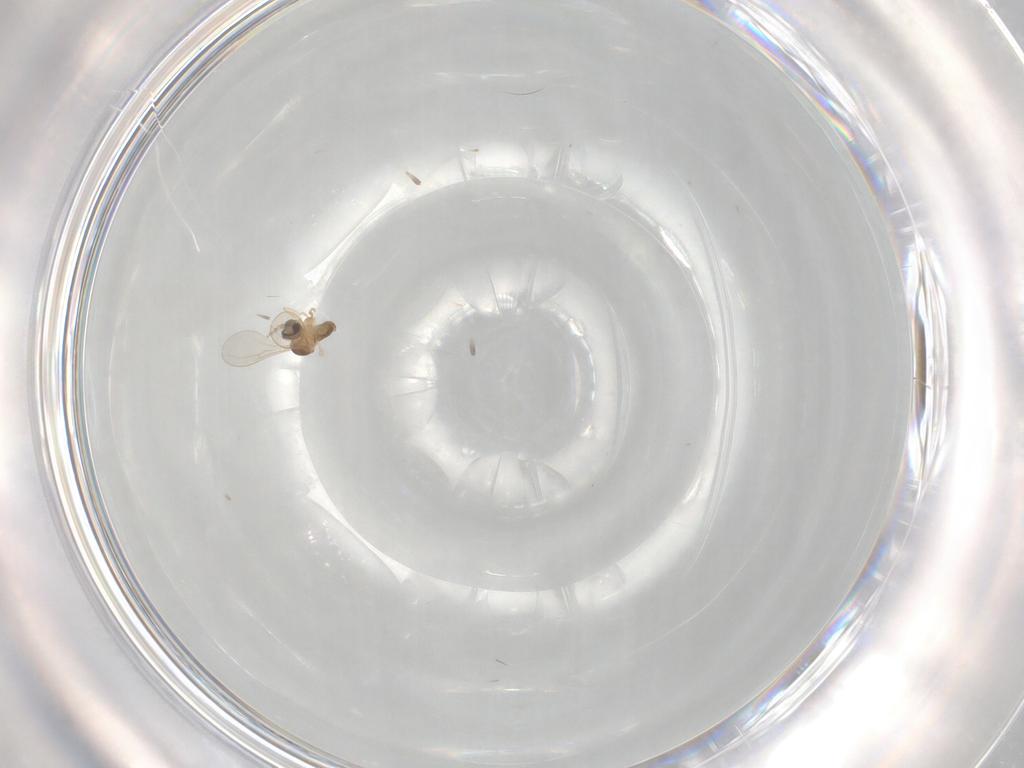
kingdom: Animalia
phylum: Arthropoda
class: Insecta
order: Diptera
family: Cecidomyiidae
